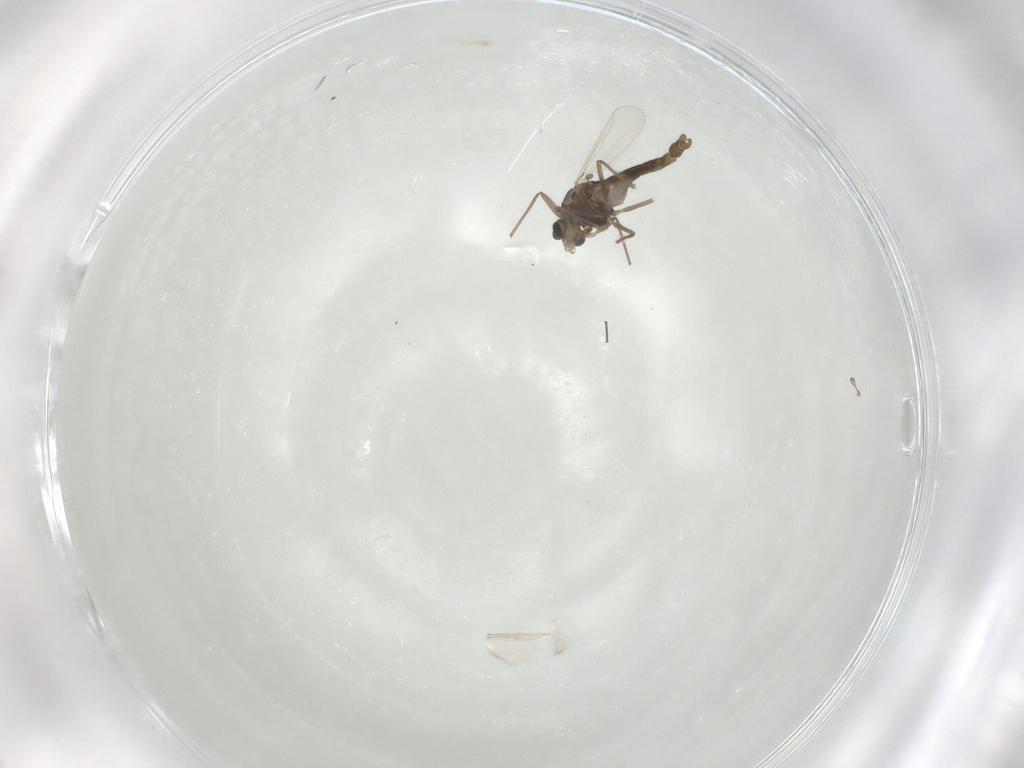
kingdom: Animalia
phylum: Arthropoda
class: Insecta
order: Diptera
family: Chironomidae
